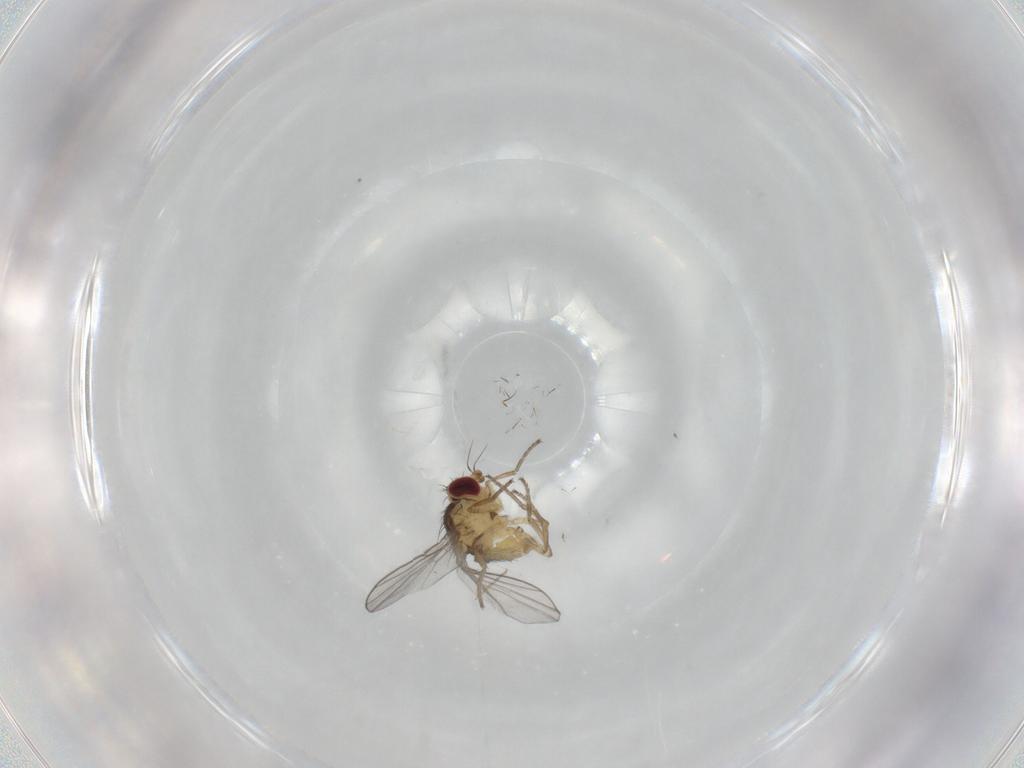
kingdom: Animalia
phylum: Arthropoda
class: Insecta
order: Diptera
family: Agromyzidae
